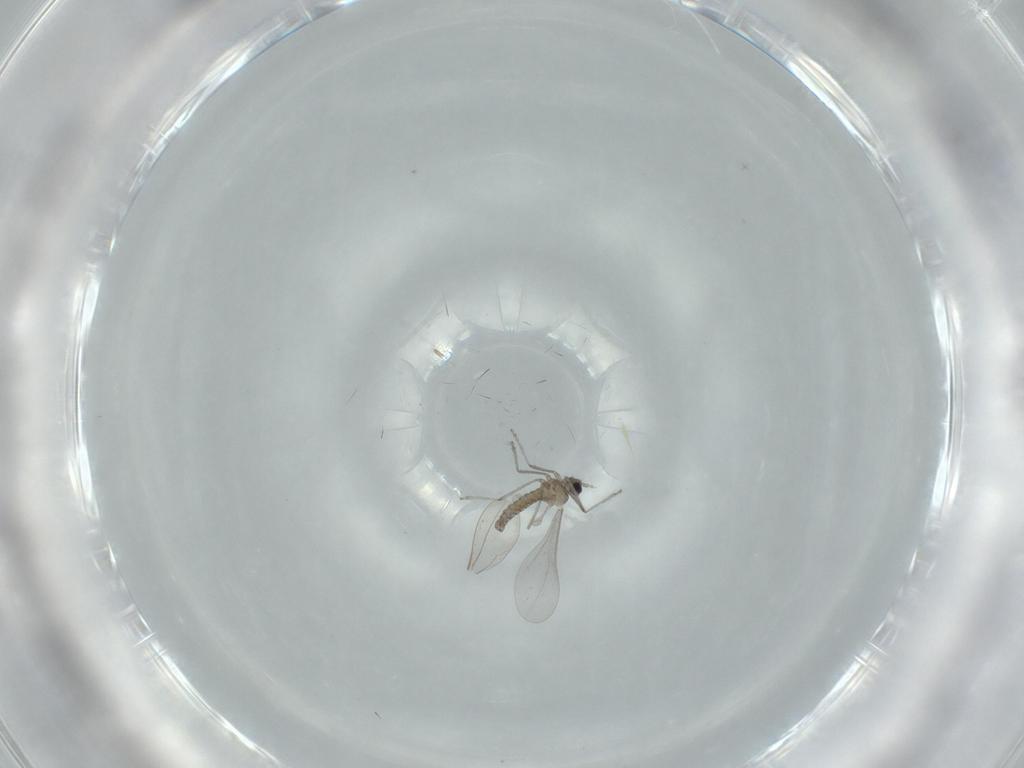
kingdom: Animalia
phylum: Arthropoda
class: Insecta
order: Diptera
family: Cecidomyiidae
